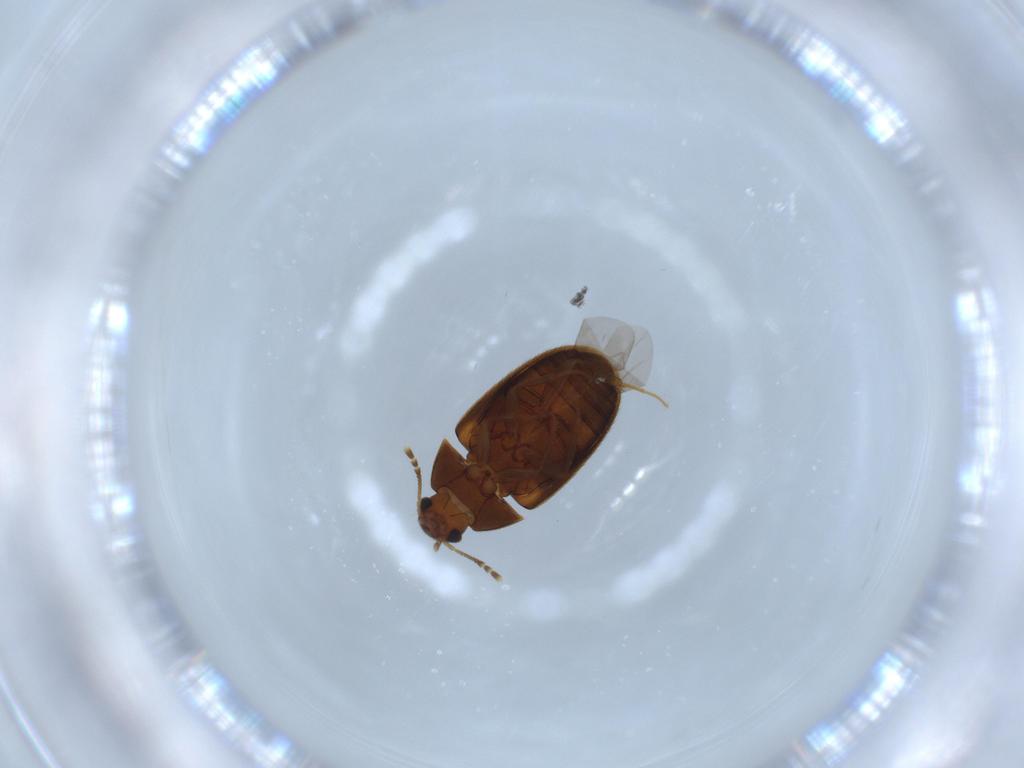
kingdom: Animalia
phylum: Arthropoda
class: Insecta
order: Coleoptera
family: Mycetophagidae
